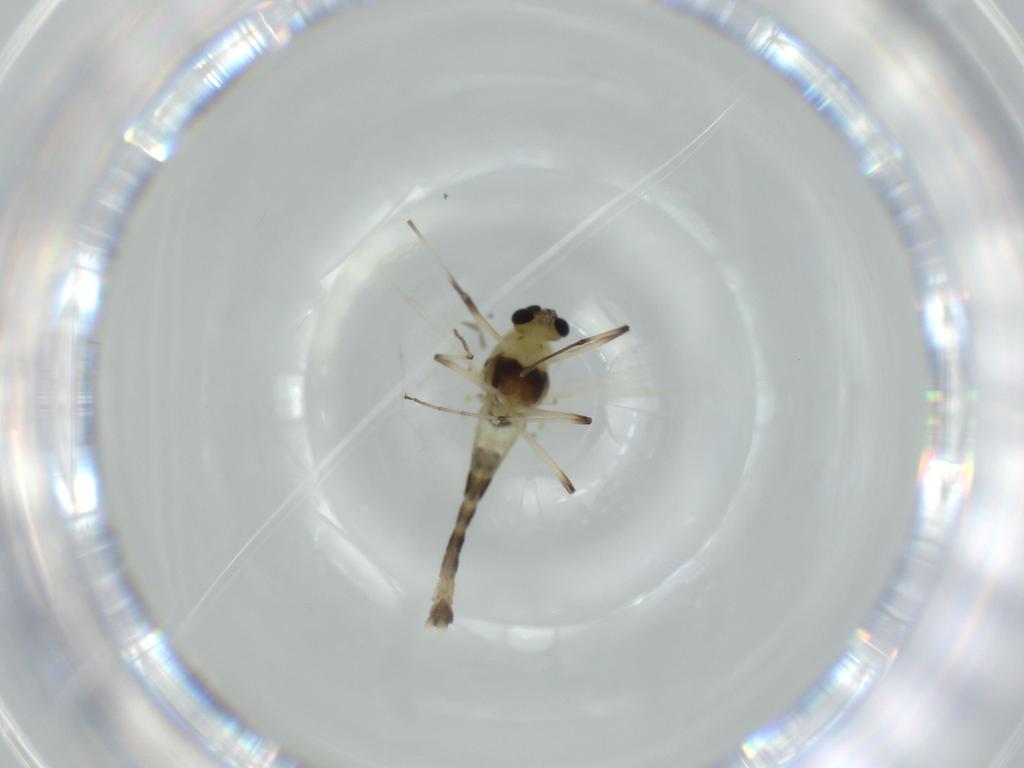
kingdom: Animalia
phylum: Arthropoda
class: Insecta
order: Diptera
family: Chironomidae
